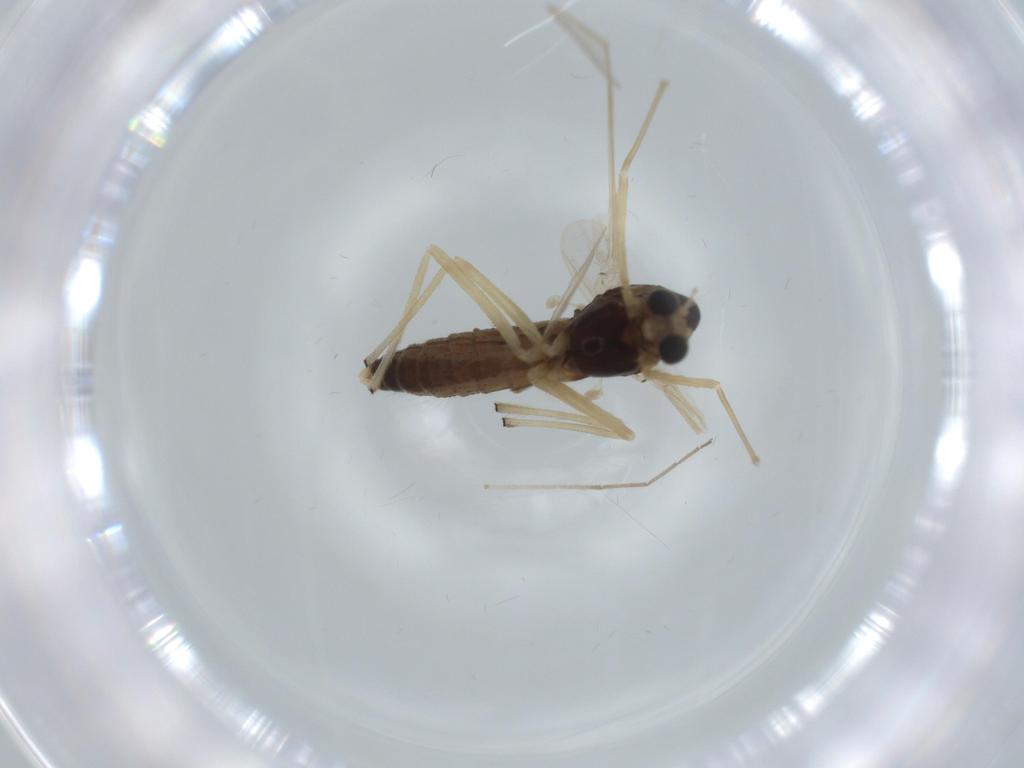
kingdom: Animalia
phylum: Arthropoda
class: Insecta
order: Diptera
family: Chironomidae
